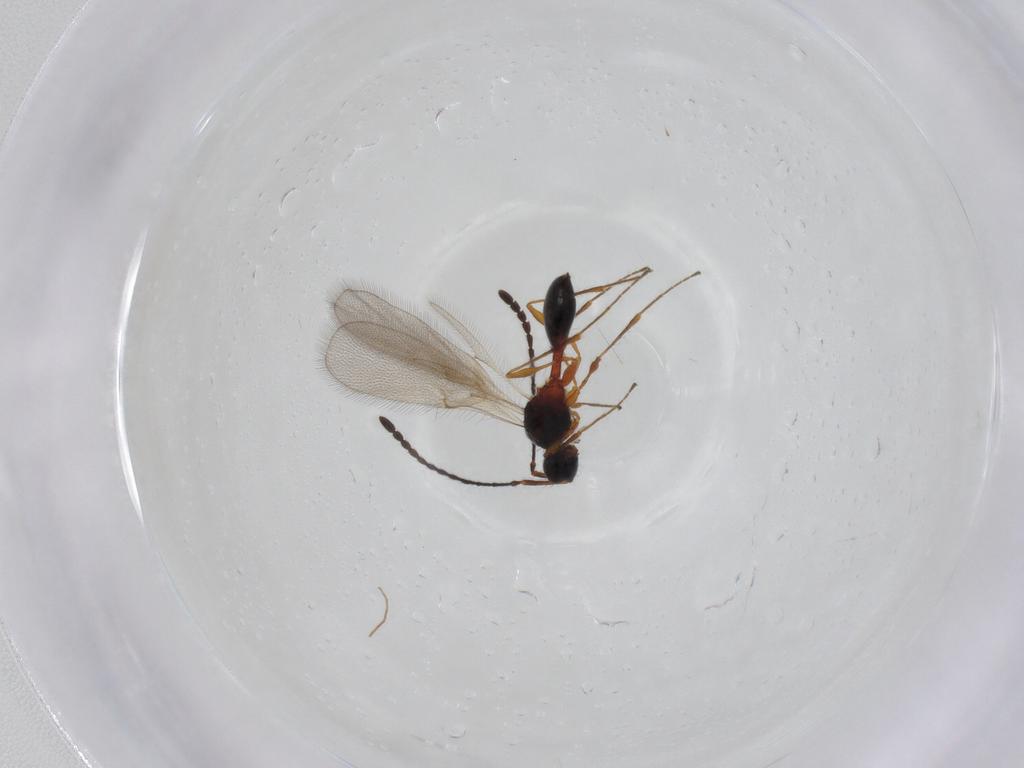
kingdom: Animalia
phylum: Arthropoda
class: Insecta
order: Hymenoptera
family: Diapriidae
